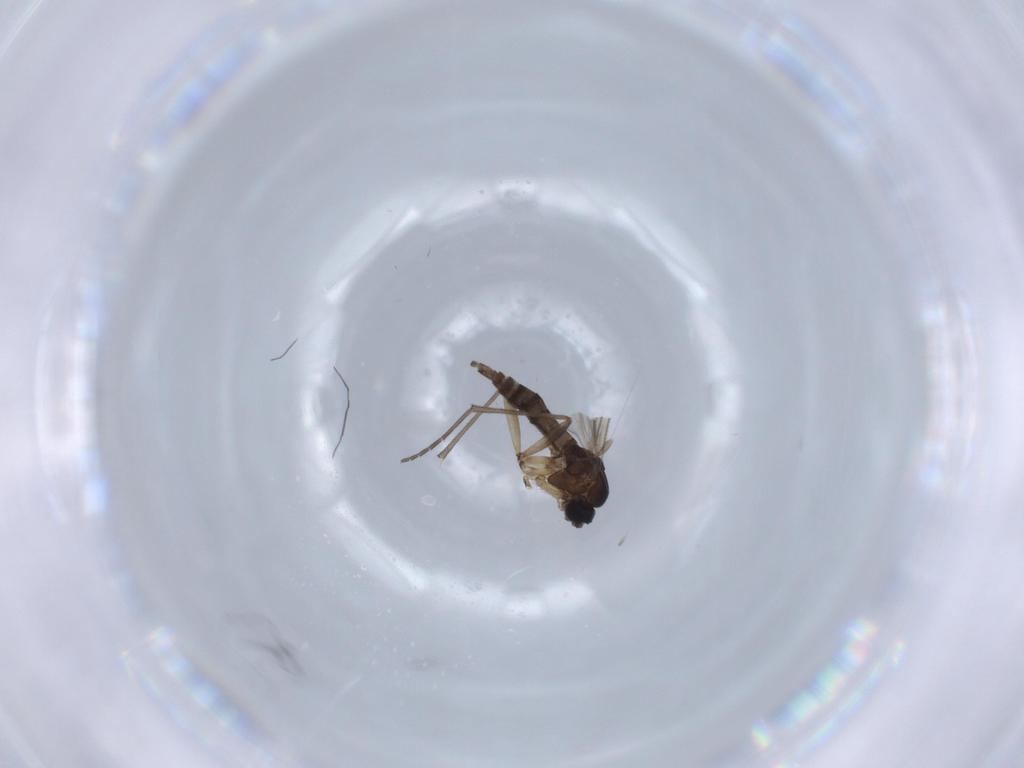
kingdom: Animalia
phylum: Arthropoda
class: Insecta
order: Diptera
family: Sciaridae
